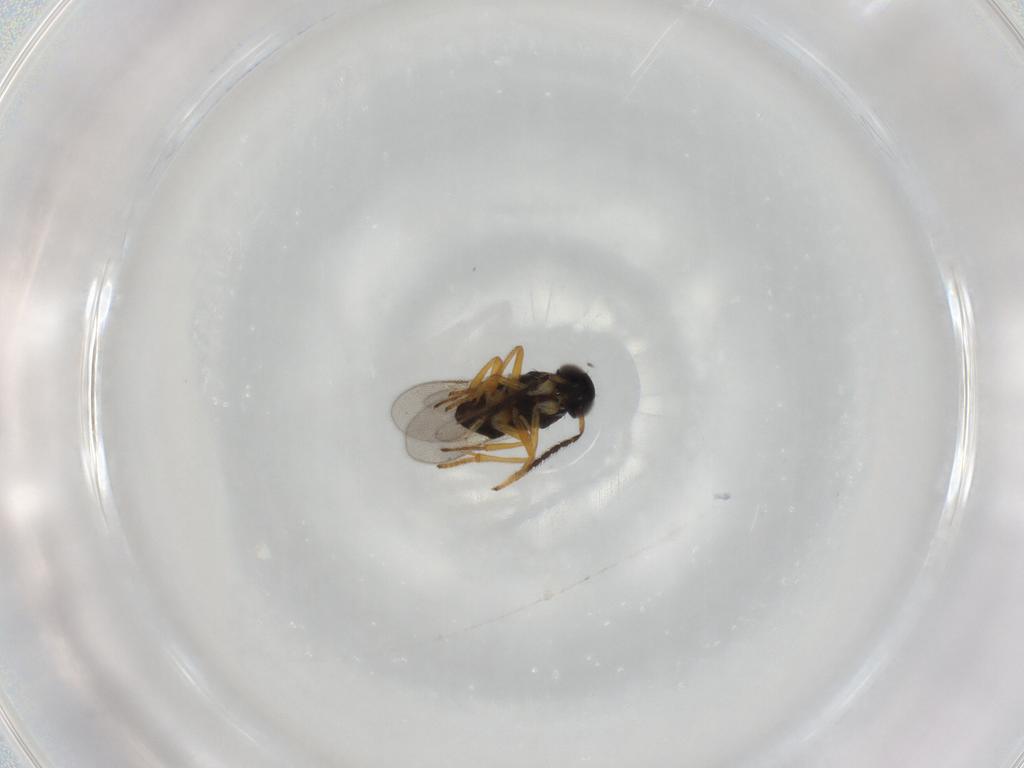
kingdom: Animalia
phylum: Arthropoda
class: Insecta
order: Hymenoptera
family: Encyrtidae
